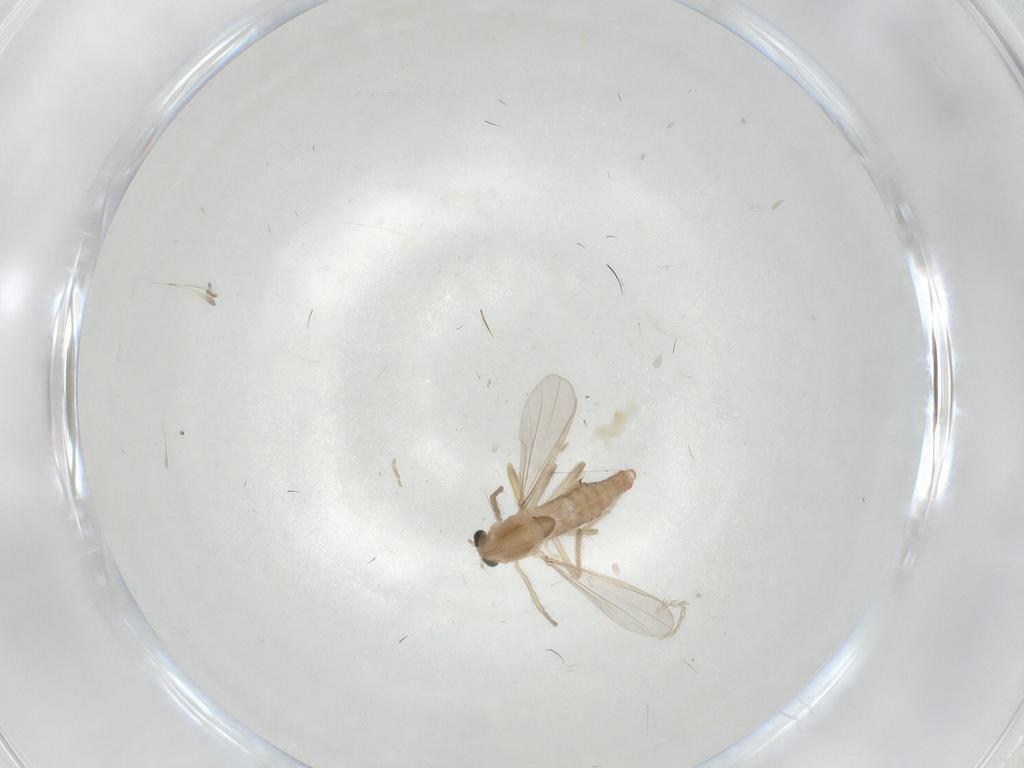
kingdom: Animalia
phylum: Arthropoda
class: Insecta
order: Diptera
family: Chironomidae
